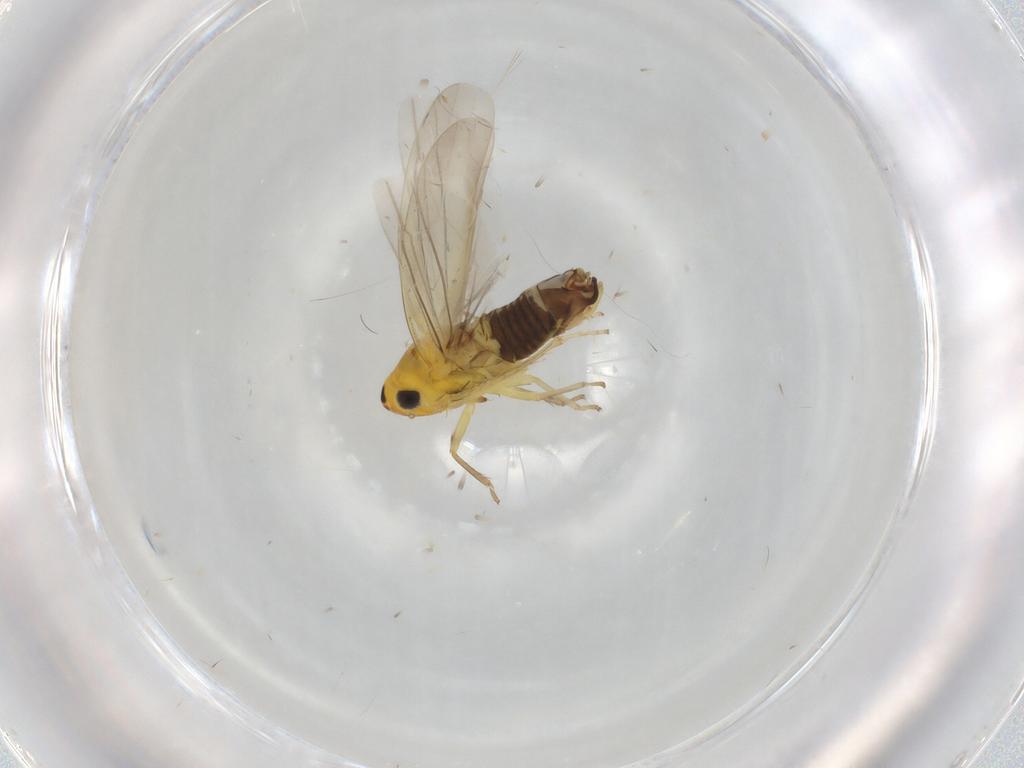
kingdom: Animalia
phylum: Arthropoda
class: Insecta
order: Hemiptera
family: Cicadellidae
